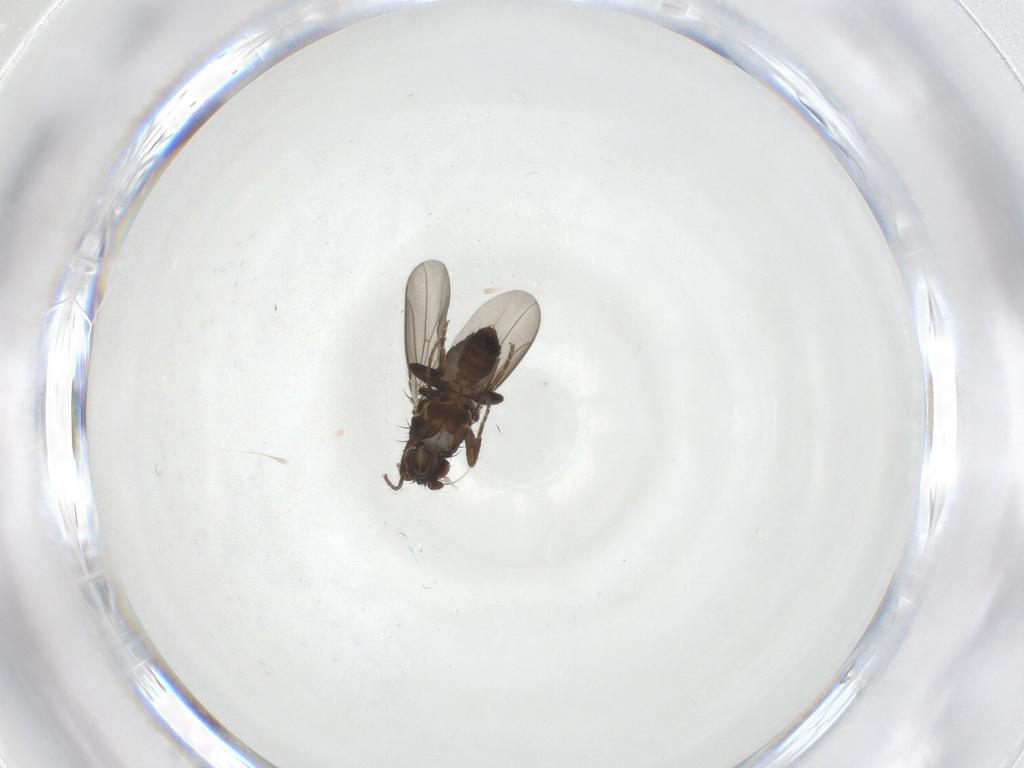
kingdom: Animalia
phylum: Arthropoda
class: Insecta
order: Diptera
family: Sphaeroceridae
